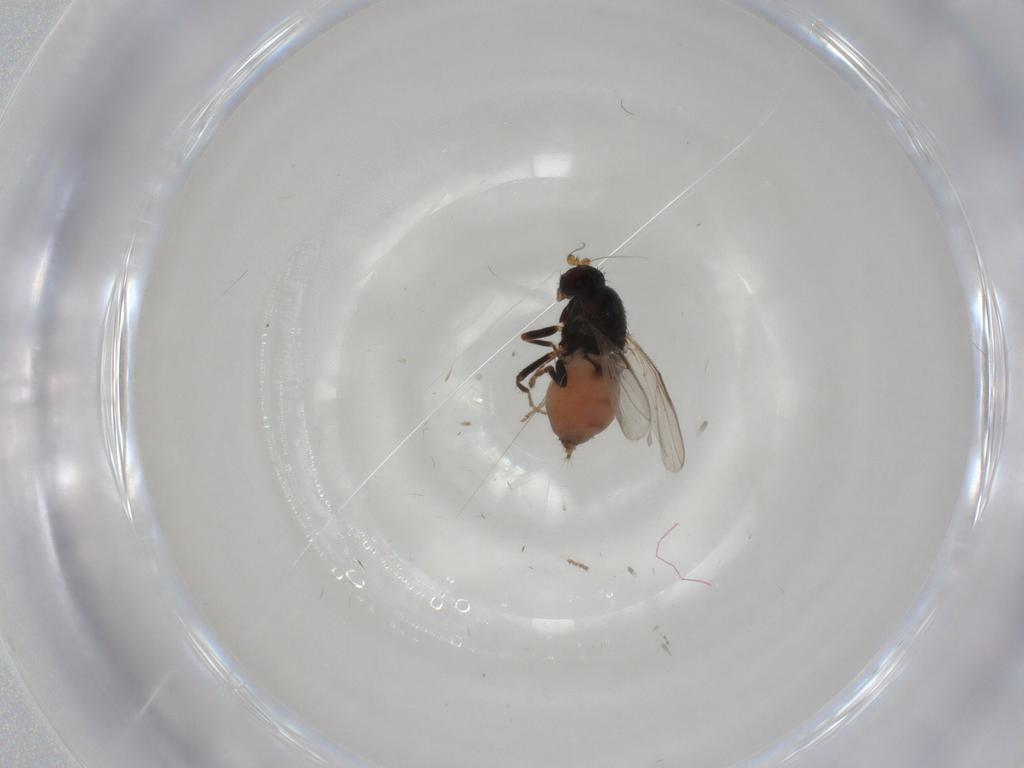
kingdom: Animalia
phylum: Arthropoda
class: Insecta
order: Diptera
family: Sphaeroceridae
